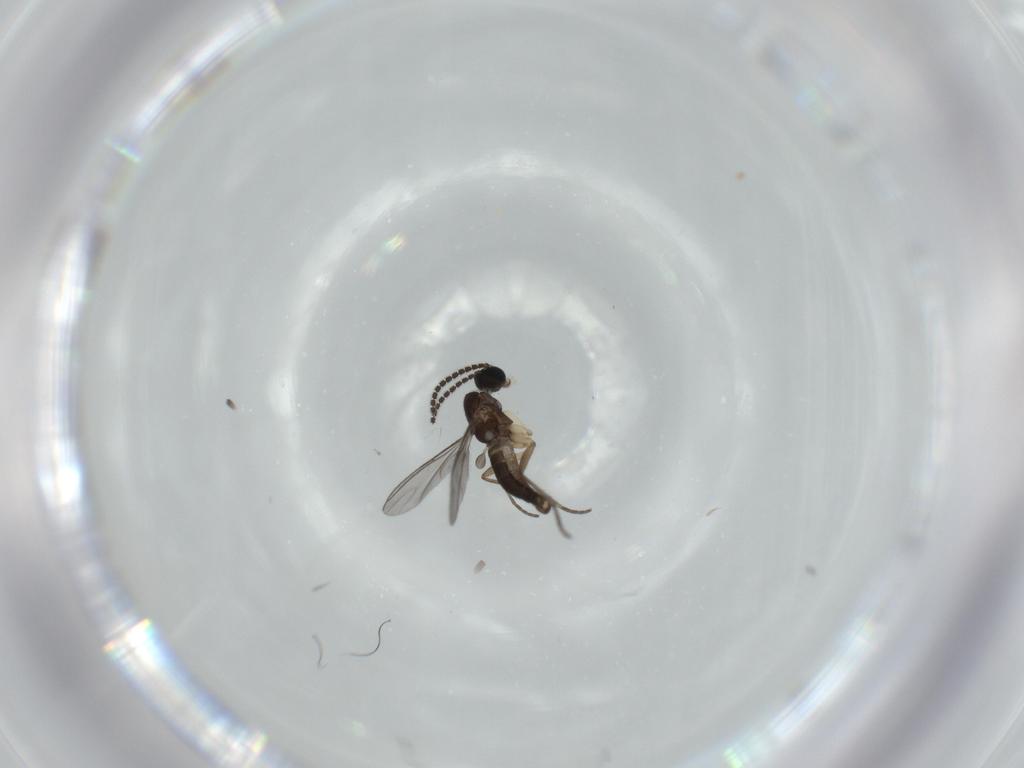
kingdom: Animalia
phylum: Arthropoda
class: Insecta
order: Diptera
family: Sciaridae
